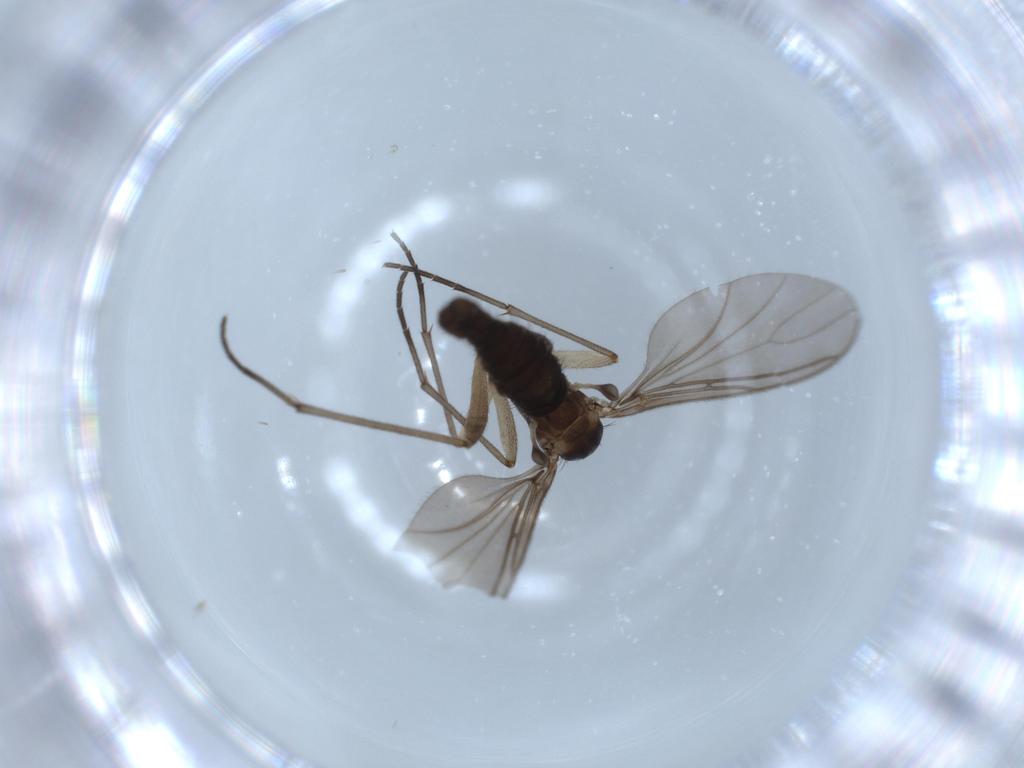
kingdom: Animalia
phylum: Arthropoda
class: Insecta
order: Diptera
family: Sciaridae
